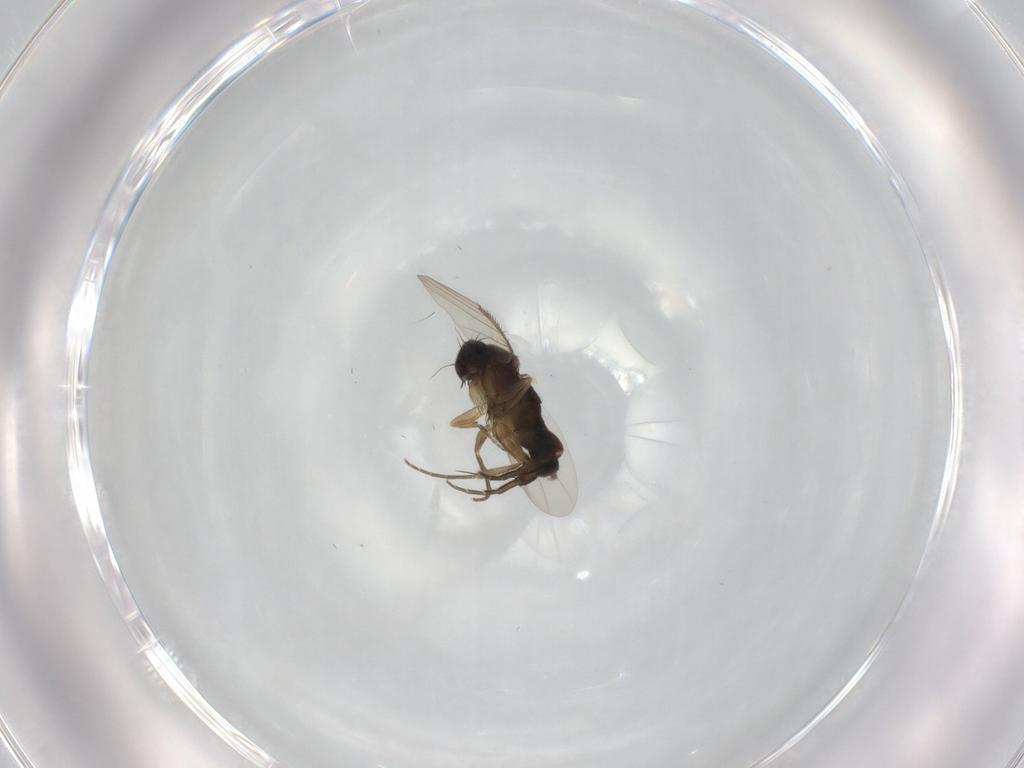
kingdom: Animalia
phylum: Arthropoda
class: Insecta
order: Diptera
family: Phoridae
